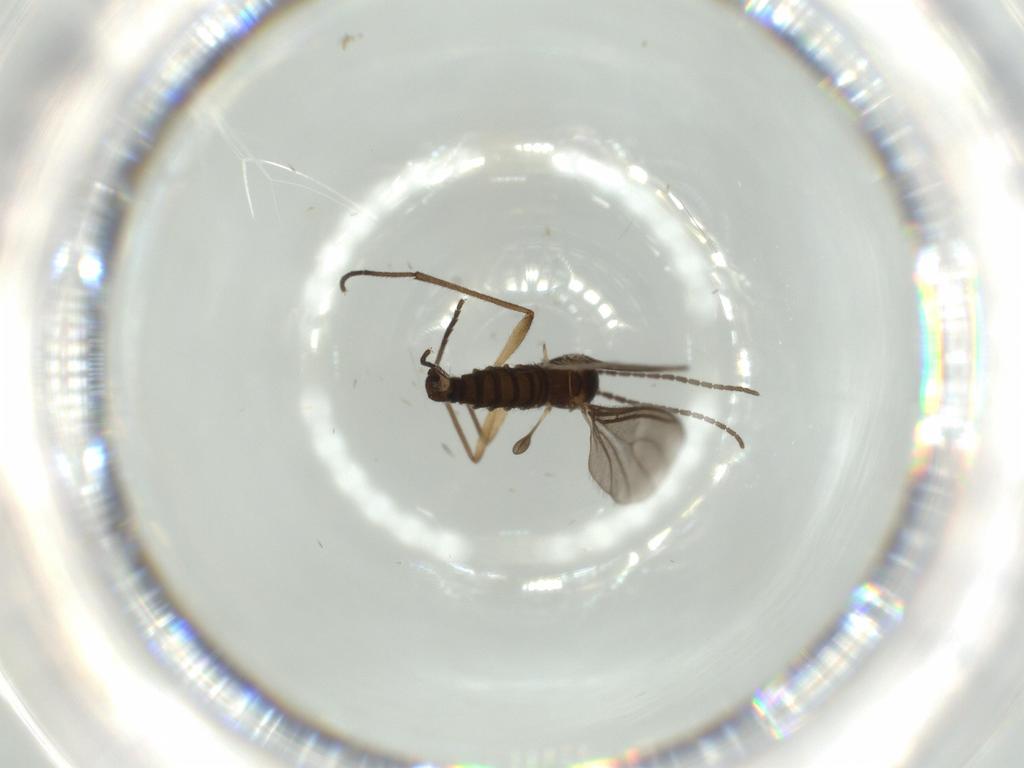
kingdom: Animalia
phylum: Arthropoda
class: Insecta
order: Diptera
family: Sciaridae
